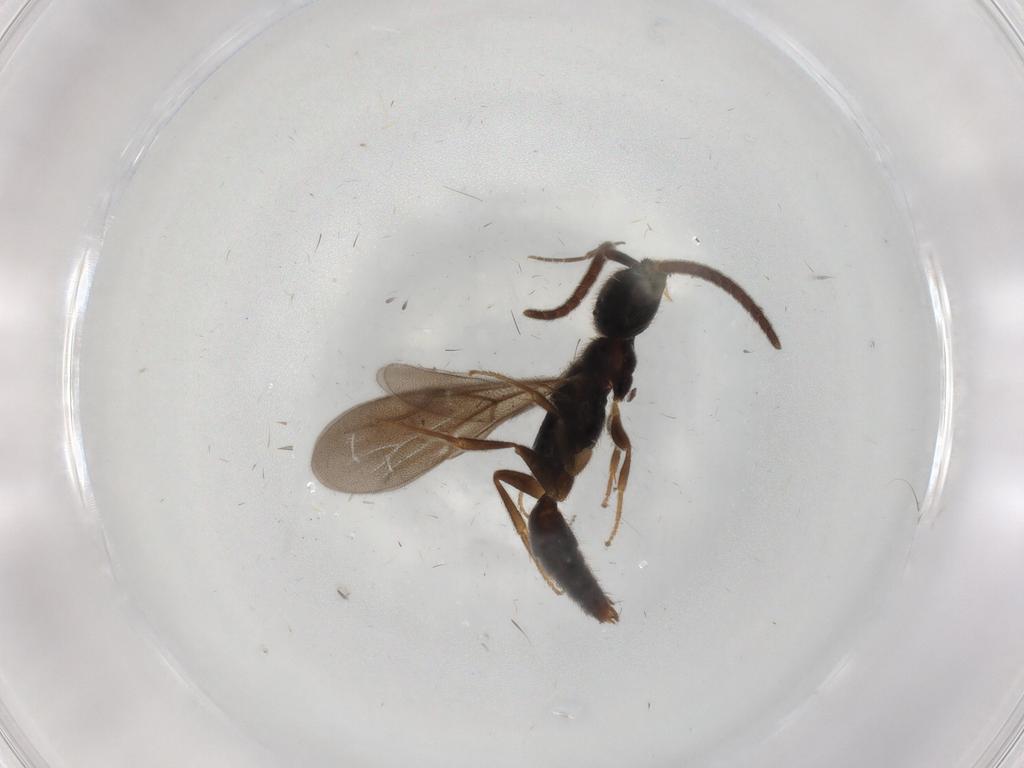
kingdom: Animalia
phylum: Arthropoda
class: Insecta
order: Hymenoptera
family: Bethylidae
